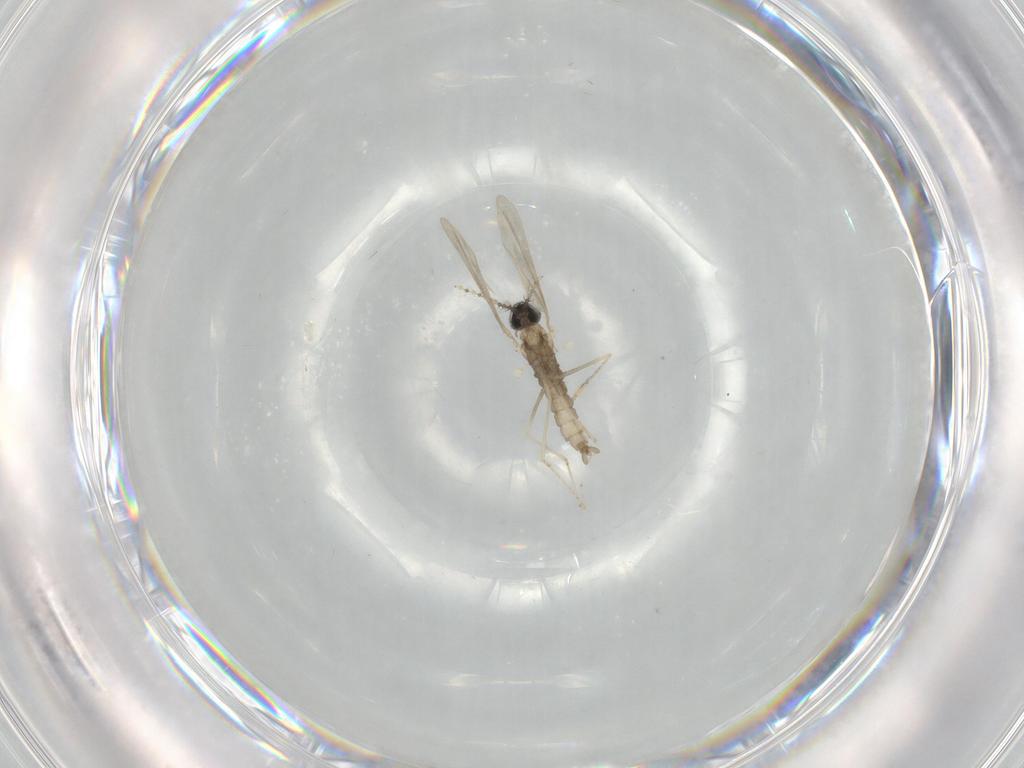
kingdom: Animalia
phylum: Arthropoda
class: Insecta
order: Diptera
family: Cecidomyiidae
